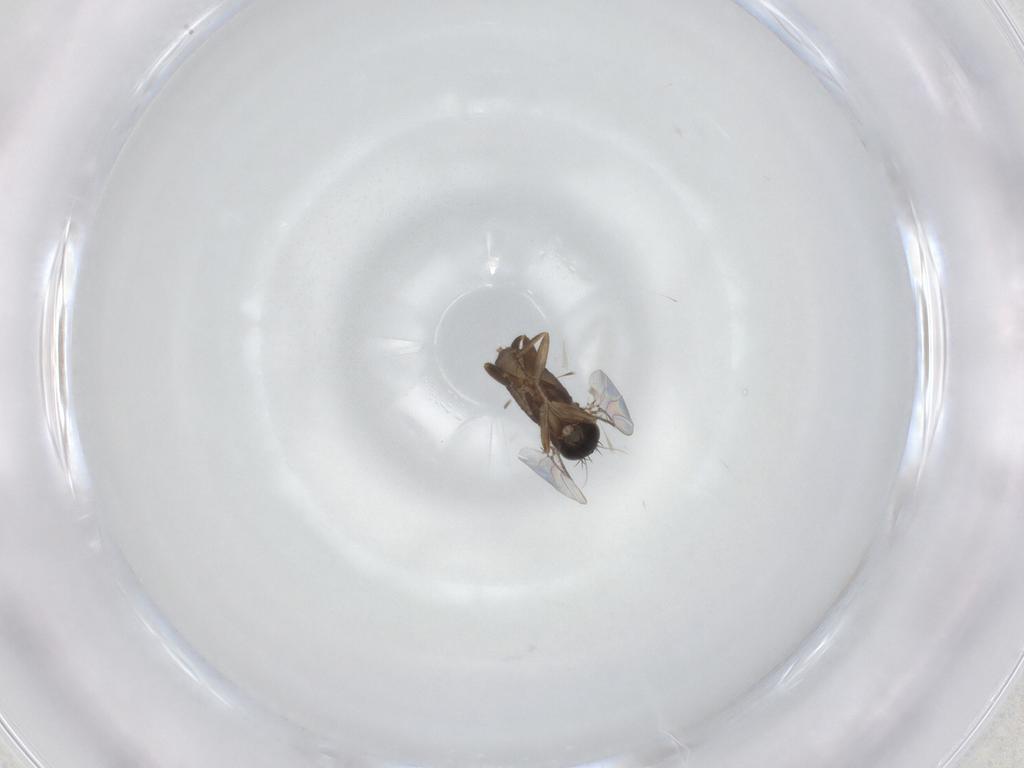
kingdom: Animalia
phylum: Arthropoda
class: Insecta
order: Diptera
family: Phoridae
